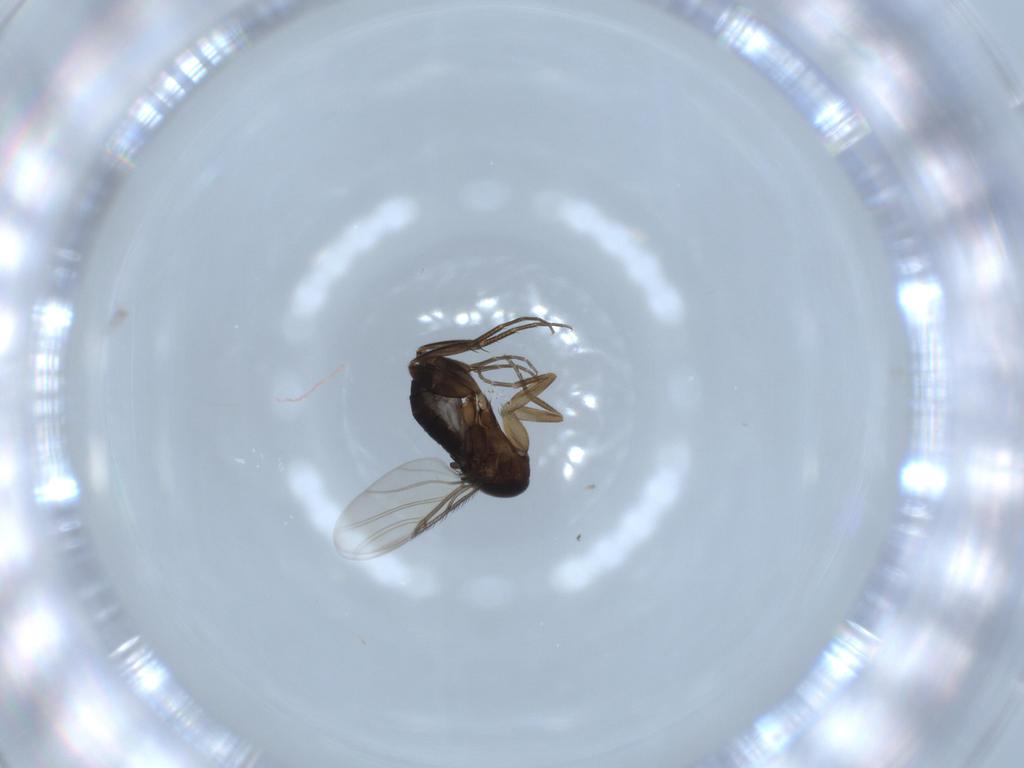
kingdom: Animalia
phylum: Arthropoda
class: Insecta
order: Diptera
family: Phoridae
